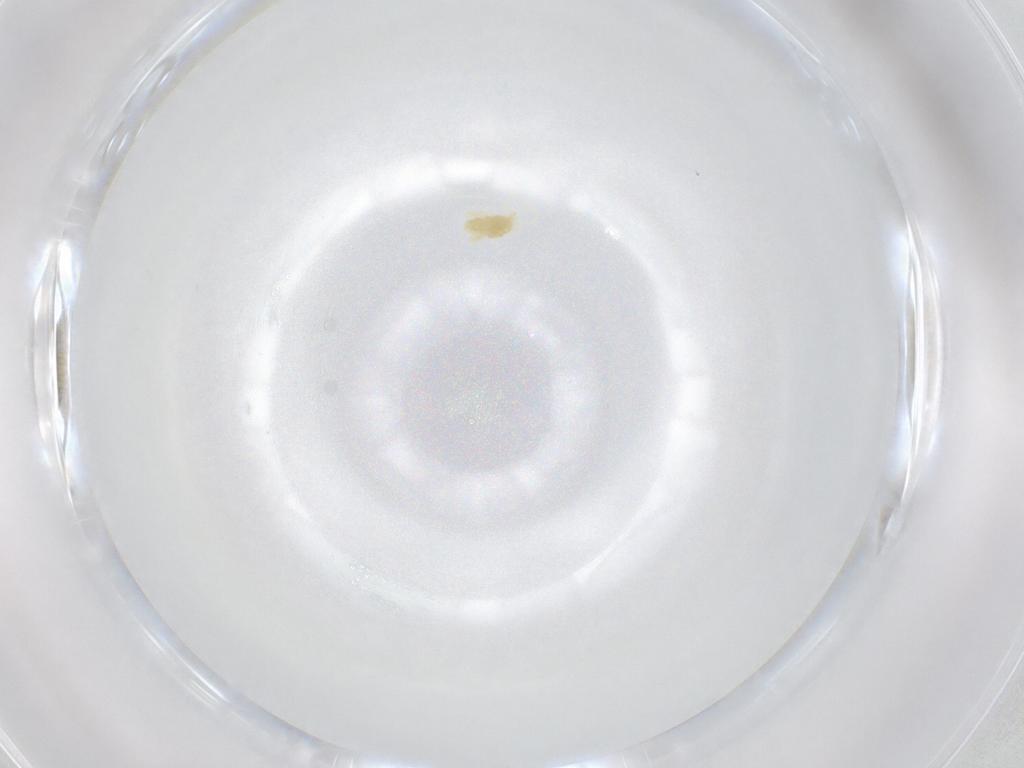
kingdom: Animalia
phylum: Arthropoda
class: Arachnida
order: Trombidiformes
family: Eupodidae
